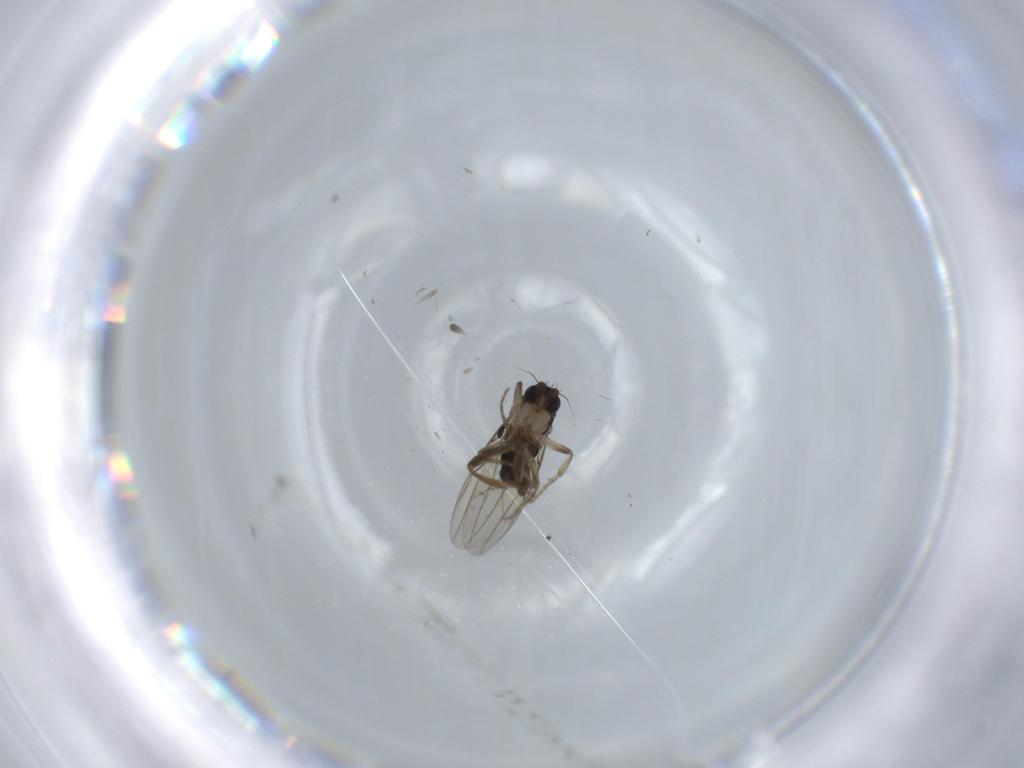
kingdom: Animalia
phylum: Arthropoda
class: Insecta
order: Diptera
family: Phoridae
